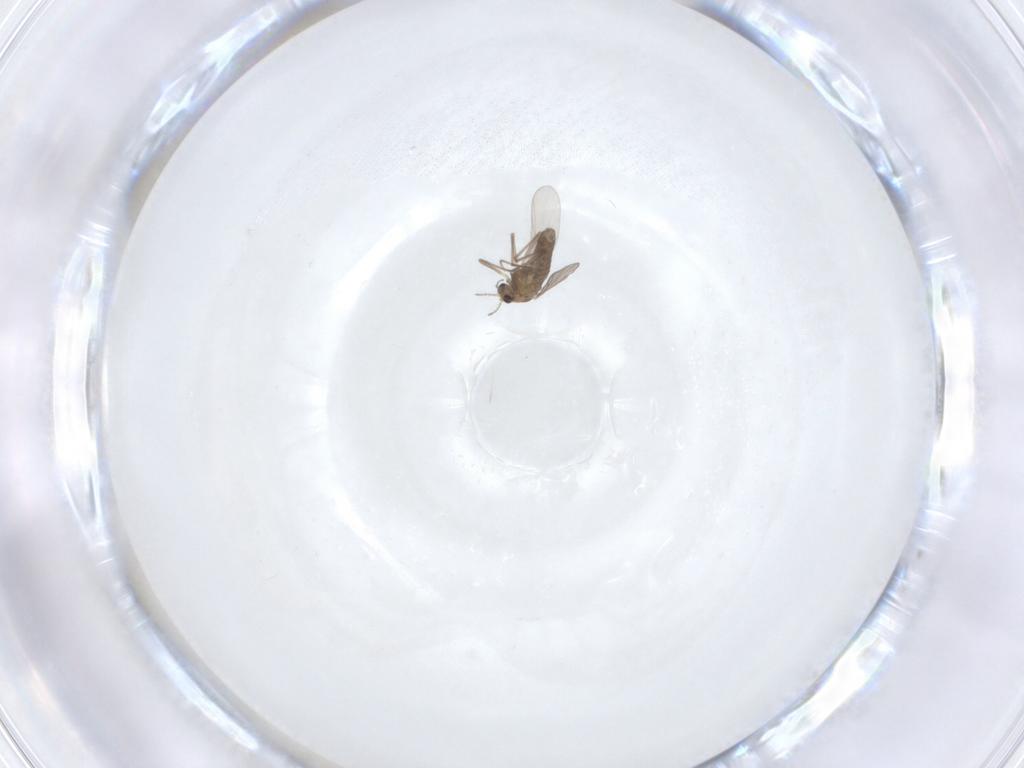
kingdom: Animalia
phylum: Arthropoda
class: Insecta
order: Diptera
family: Chironomidae
